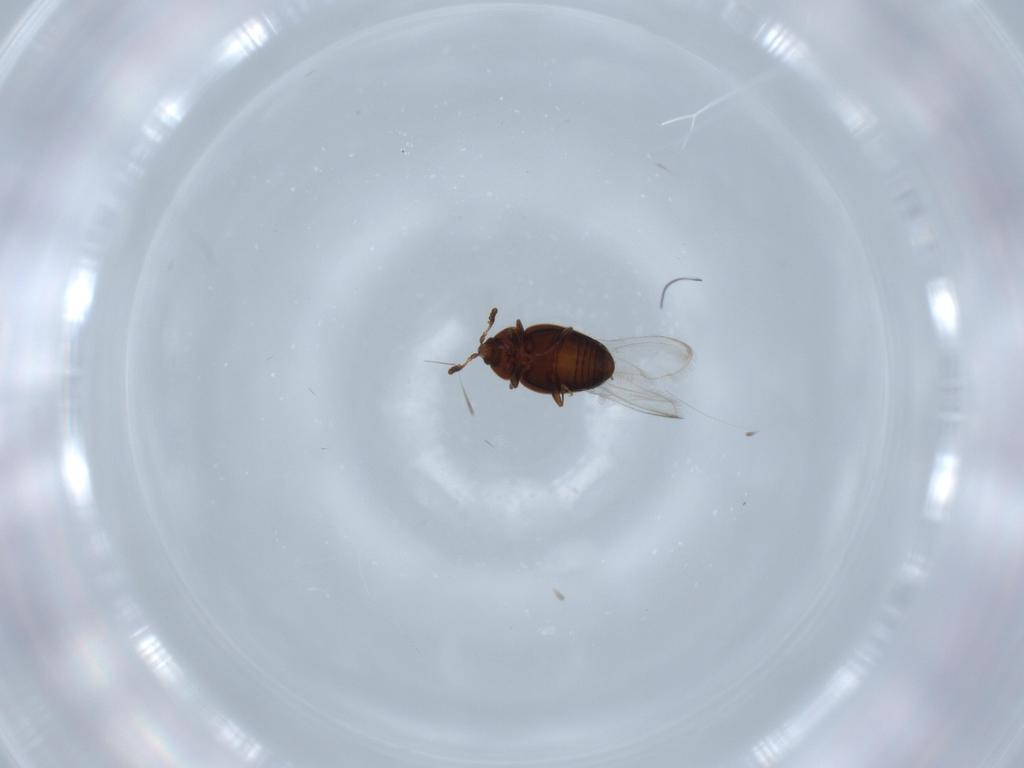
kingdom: Animalia
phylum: Arthropoda
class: Insecta
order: Coleoptera
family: Corylophidae
